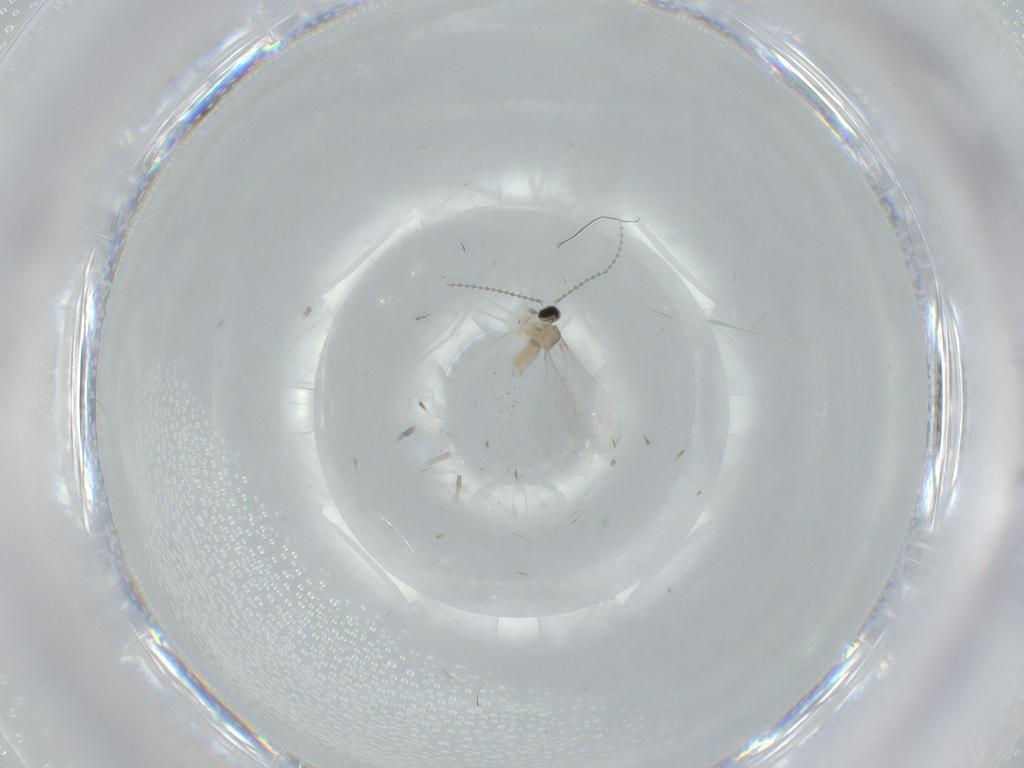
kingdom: Animalia
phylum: Arthropoda
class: Insecta
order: Diptera
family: Cecidomyiidae
